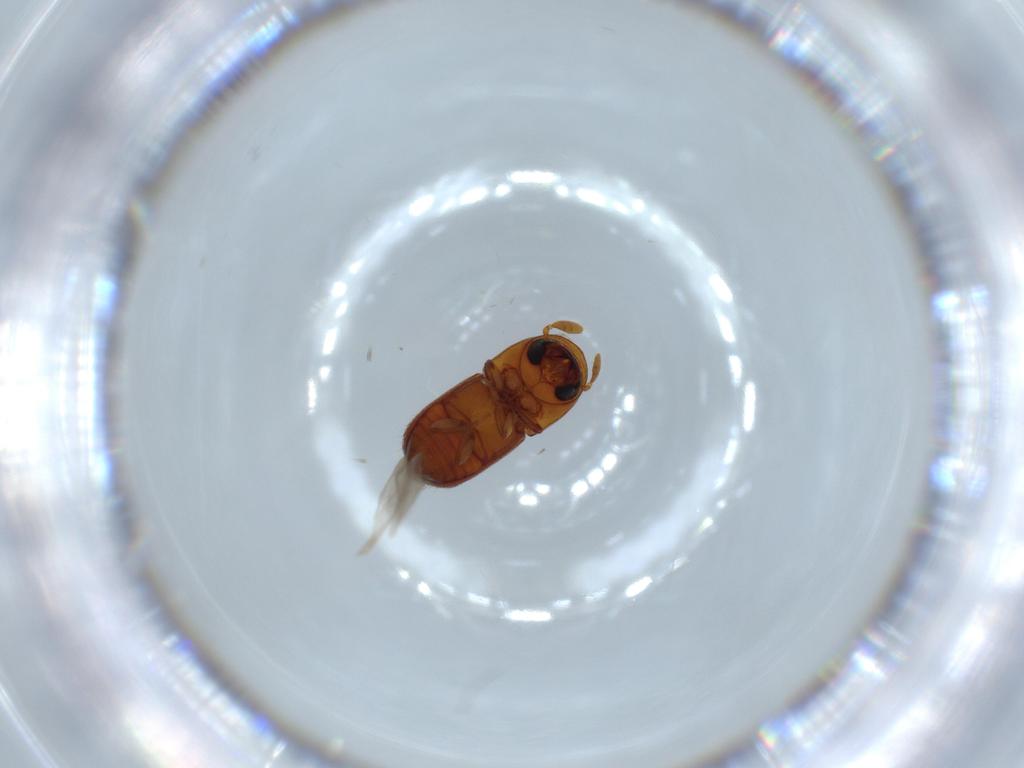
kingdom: Animalia
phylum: Arthropoda
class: Insecta
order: Coleoptera
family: Curculionidae
